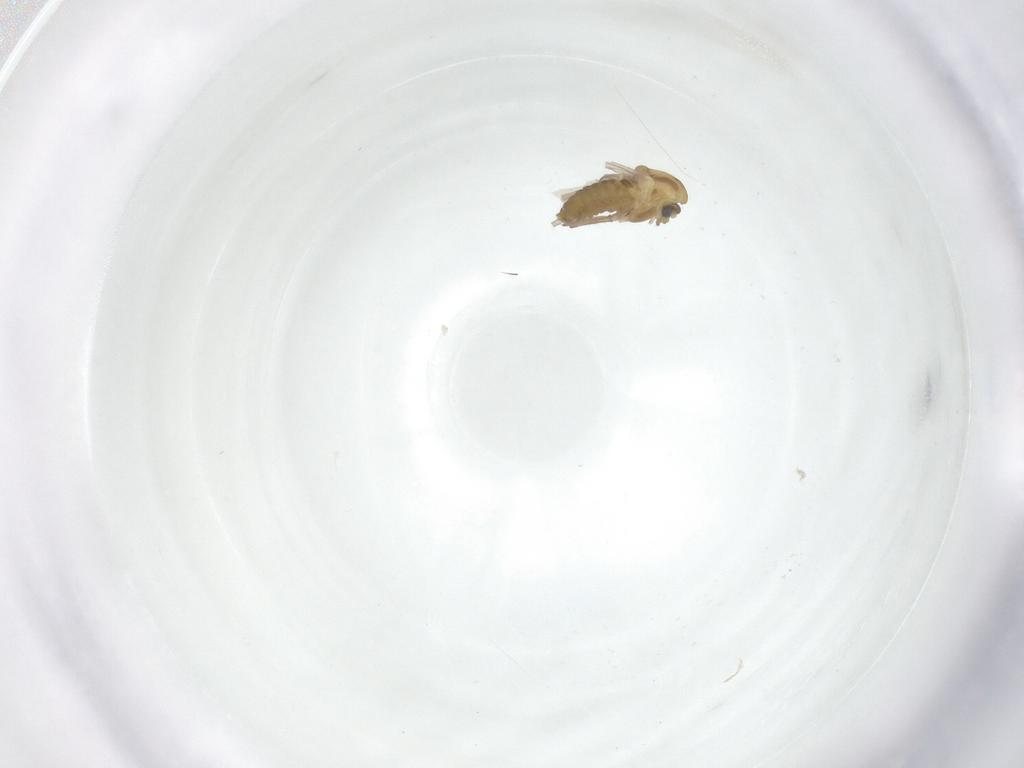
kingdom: Animalia
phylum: Arthropoda
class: Insecta
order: Diptera
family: Chironomidae
